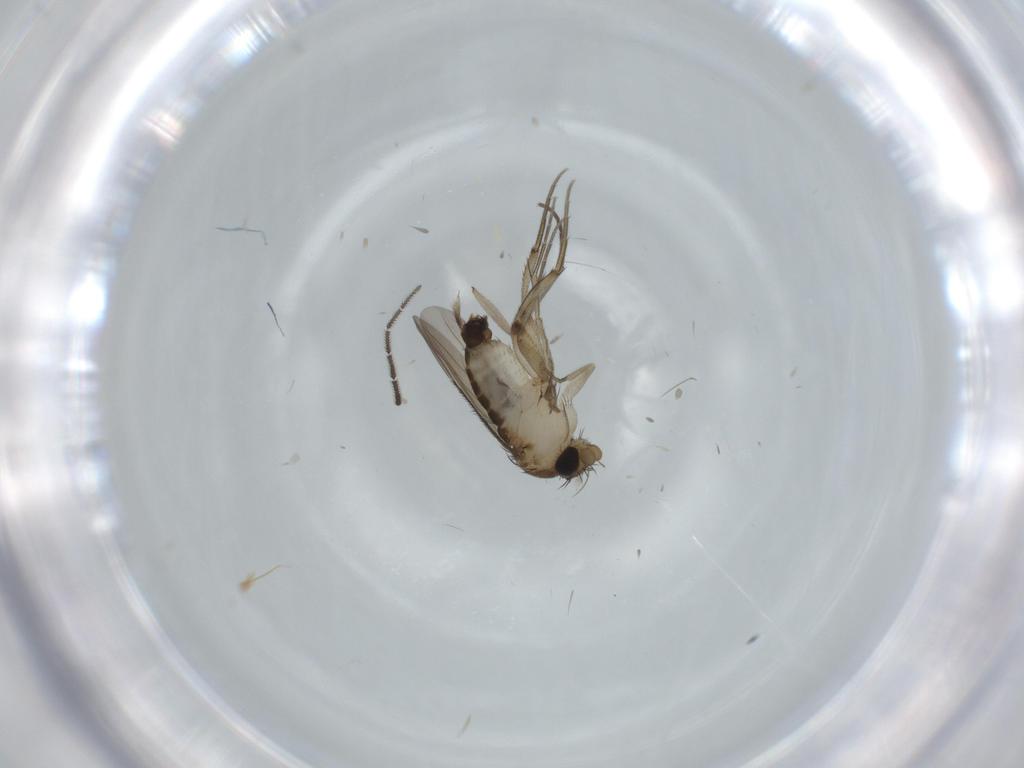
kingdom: Animalia
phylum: Arthropoda
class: Insecta
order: Diptera
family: Phoridae
